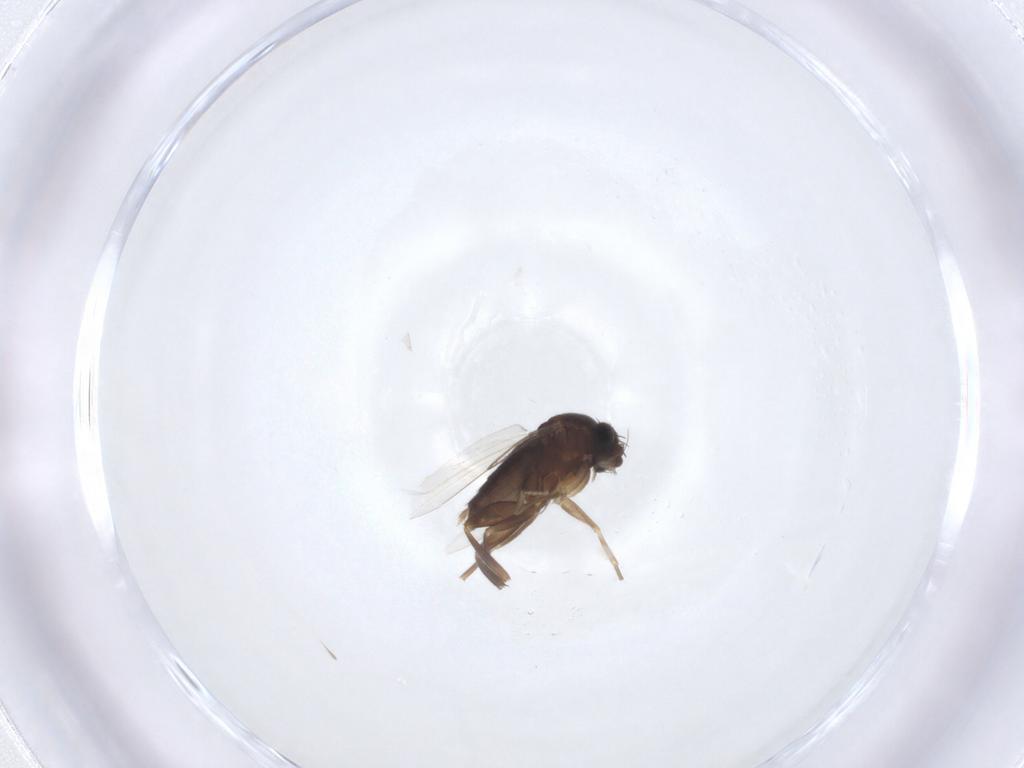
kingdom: Animalia
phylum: Arthropoda
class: Insecta
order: Diptera
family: Phoridae
